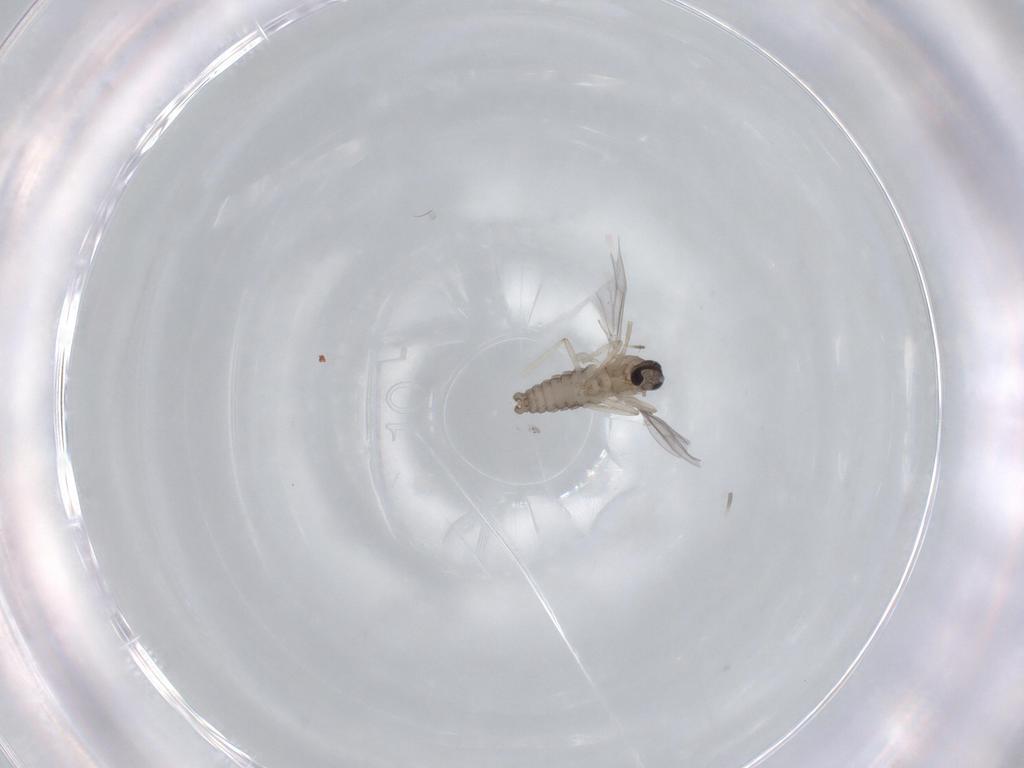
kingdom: Animalia
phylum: Arthropoda
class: Insecta
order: Diptera
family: Cecidomyiidae
